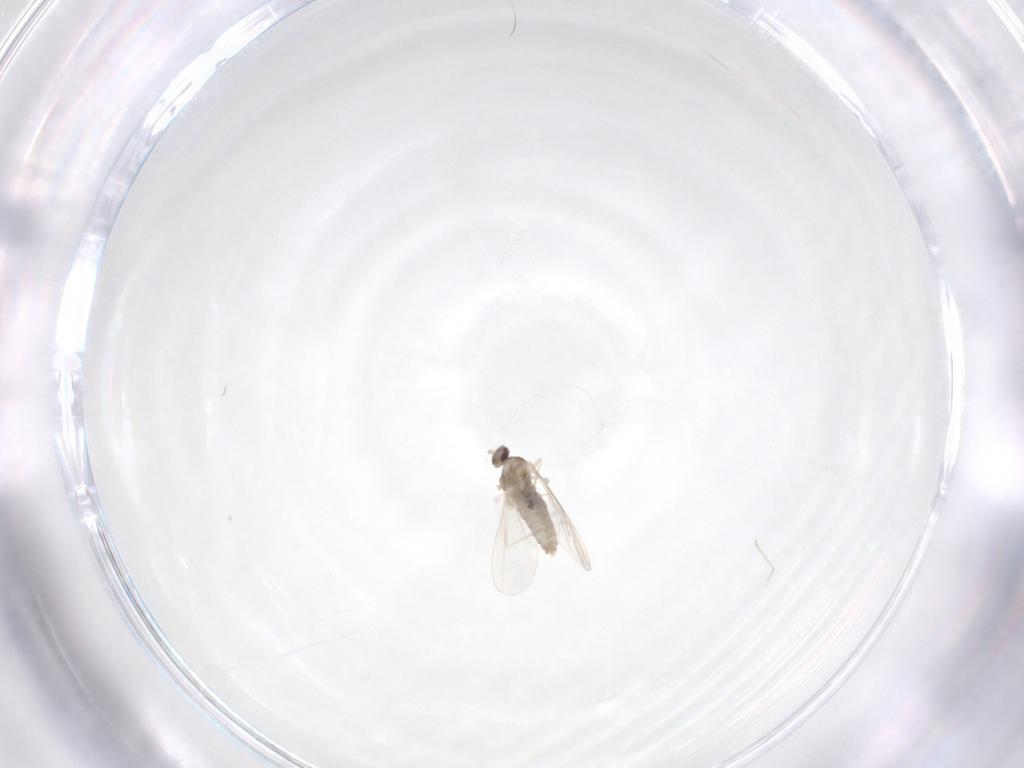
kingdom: Animalia
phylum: Arthropoda
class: Insecta
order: Diptera
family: Cecidomyiidae
